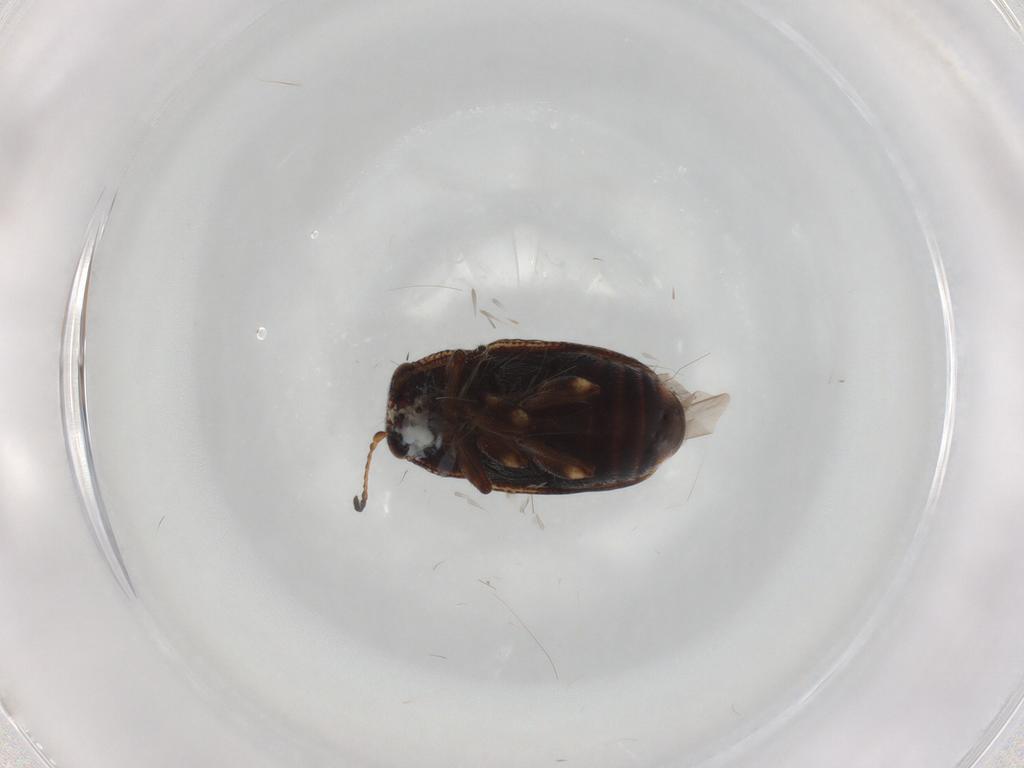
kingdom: Animalia
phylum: Arthropoda
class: Insecta
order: Coleoptera
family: Chrysomelidae
